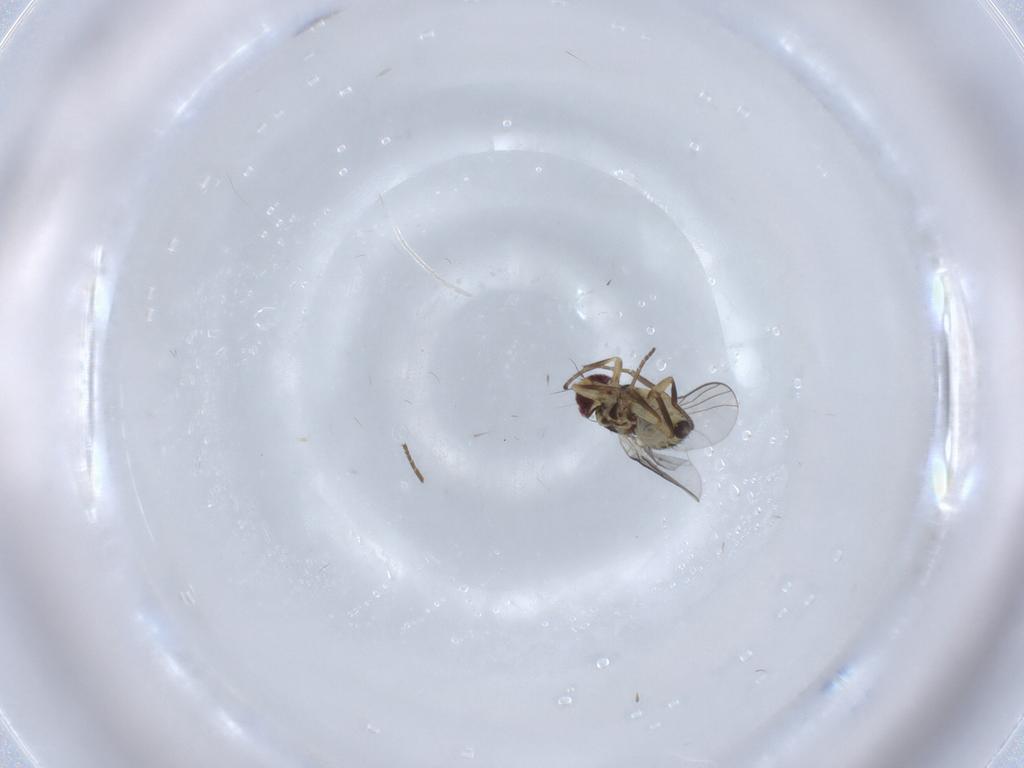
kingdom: Animalia
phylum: Arthropoda
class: Insecta
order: Diptera
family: Agromyzidae
